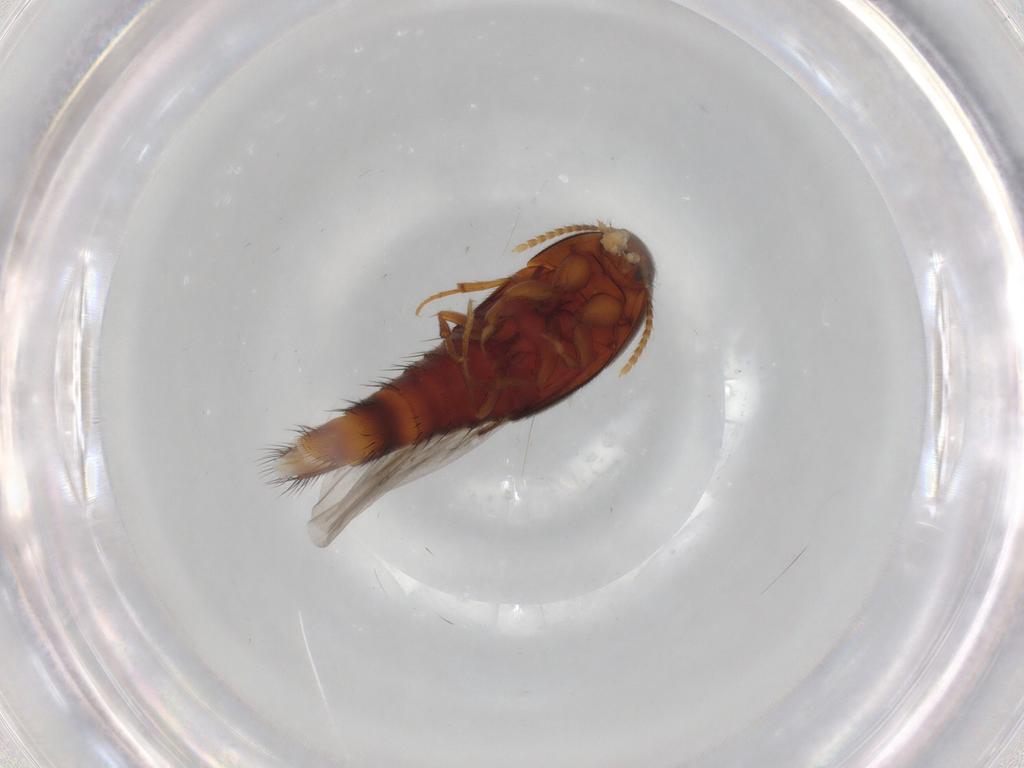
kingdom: Animalia
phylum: Arthropoda
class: Insecta
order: Coleoptera
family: Staphylinidae
